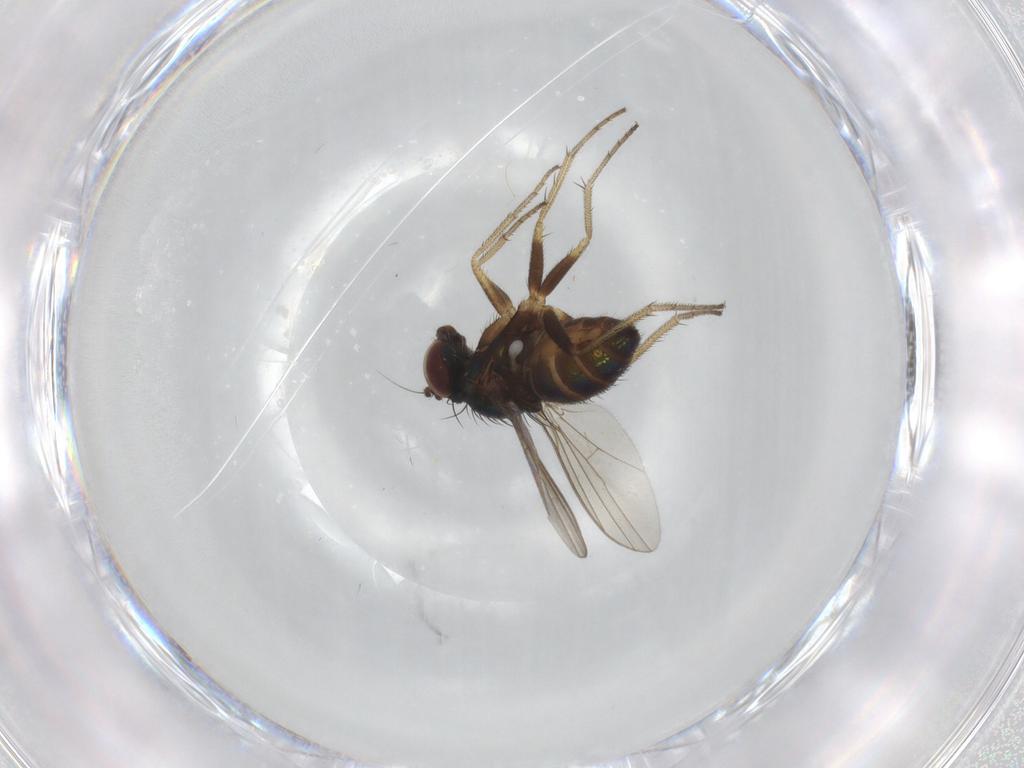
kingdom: Animalia
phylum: Arthropoda
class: Insecta
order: Diptera
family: Dolichopodidae
